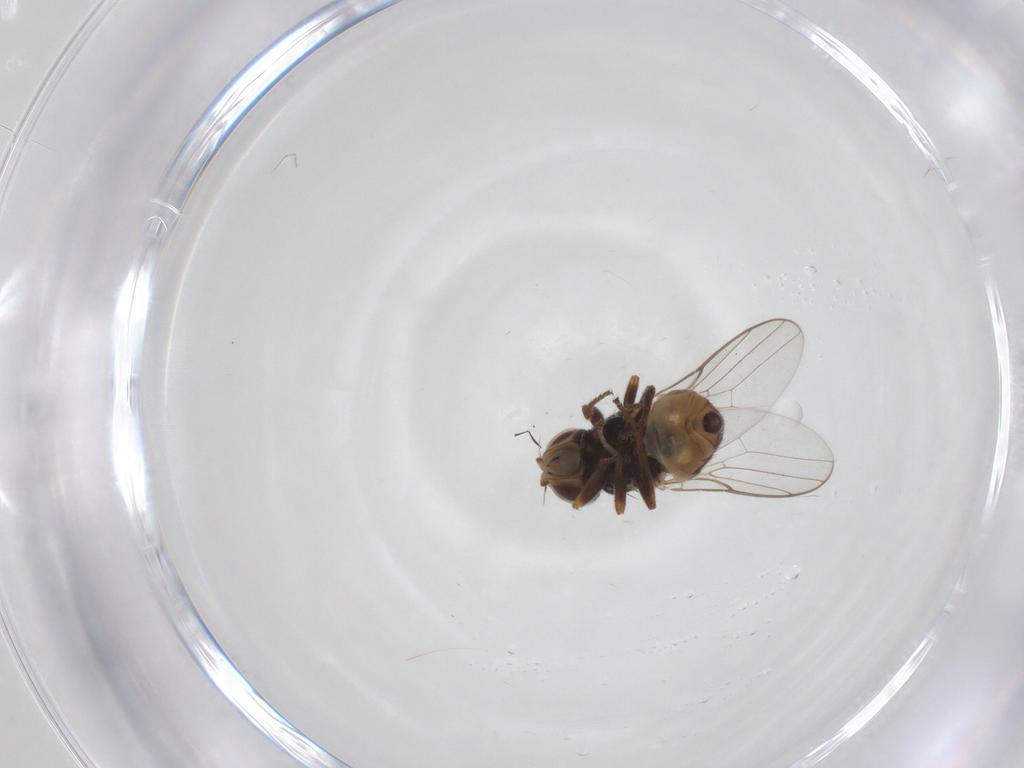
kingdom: Animalia
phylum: Arthropoda
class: Insecta
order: Diptera
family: Chloropidae
